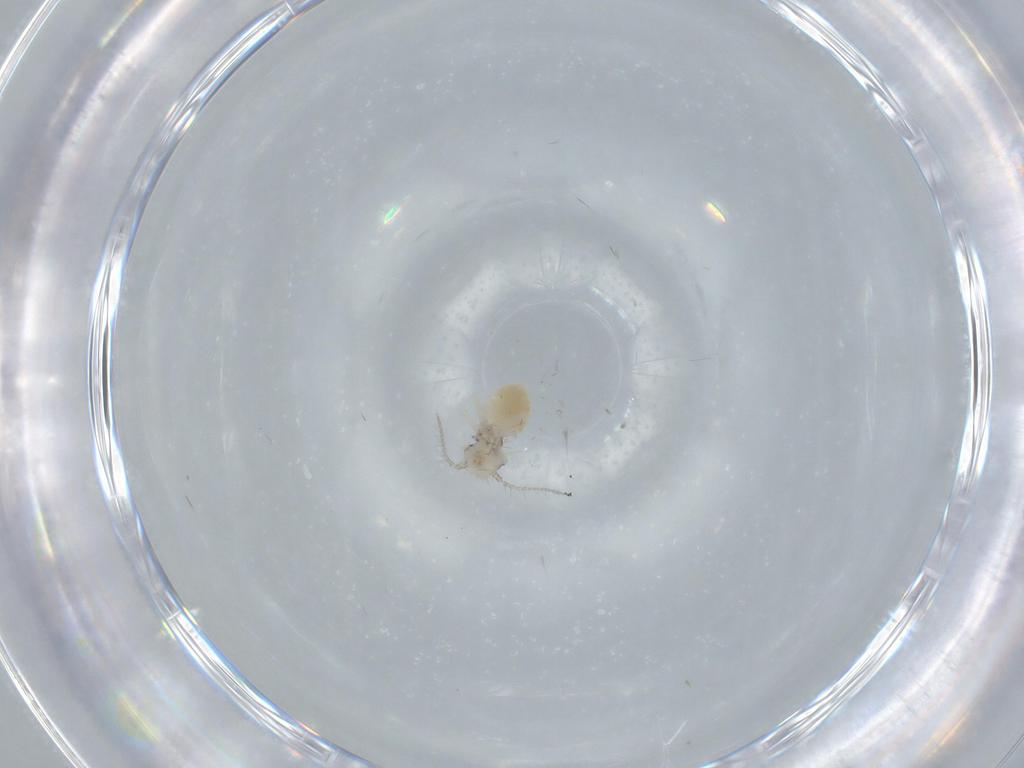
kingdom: Animalia
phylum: Arthropoda
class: Insecta
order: Psocodea
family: Pseudocaeciliidae
